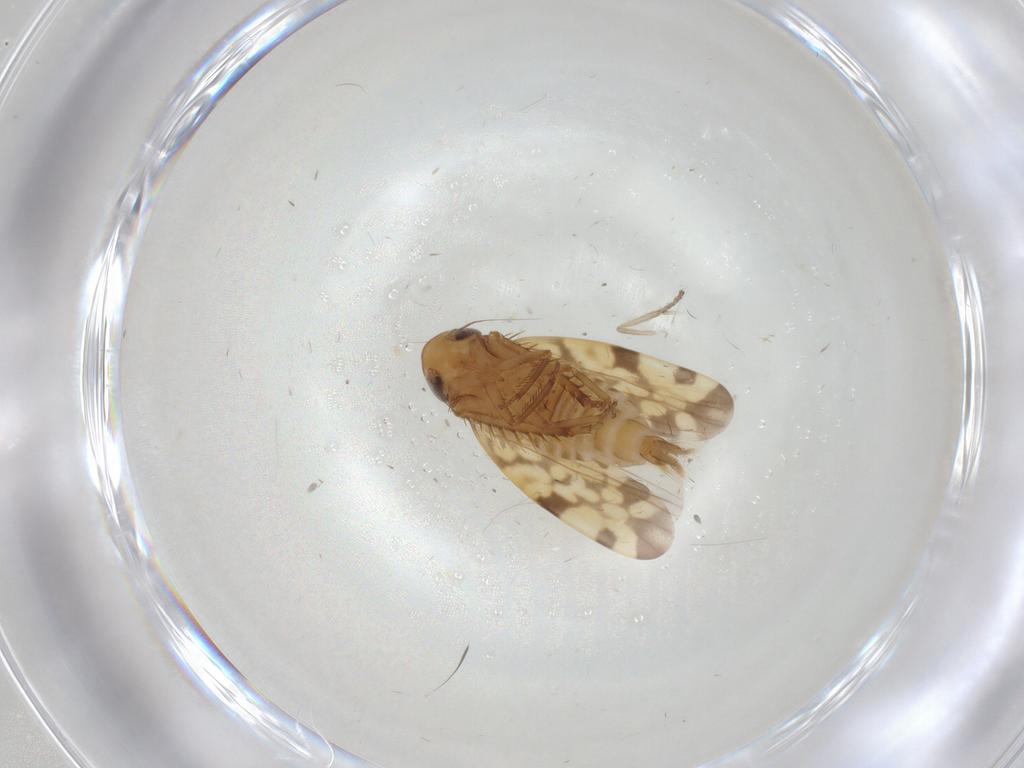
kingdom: Animalia
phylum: Arthropoda
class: Insecta
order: Hemiptera
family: Cicadellidae
